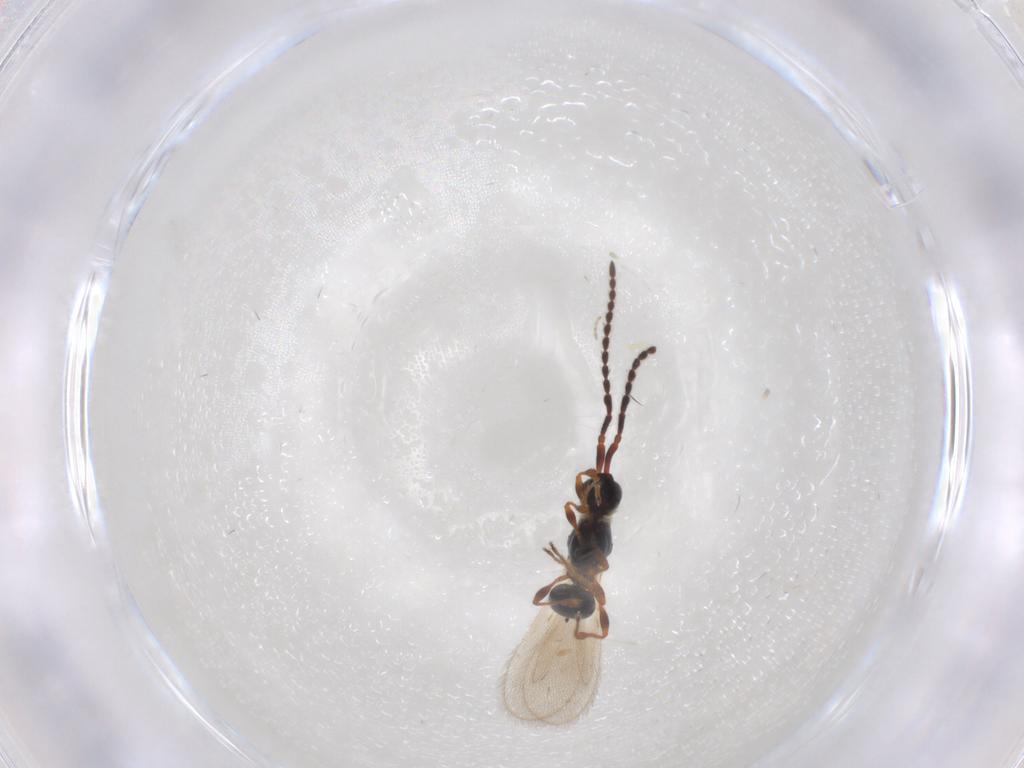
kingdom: Animalia
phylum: Arthropoda
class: Insecta
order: Hymenoptera
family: Diapriidae
